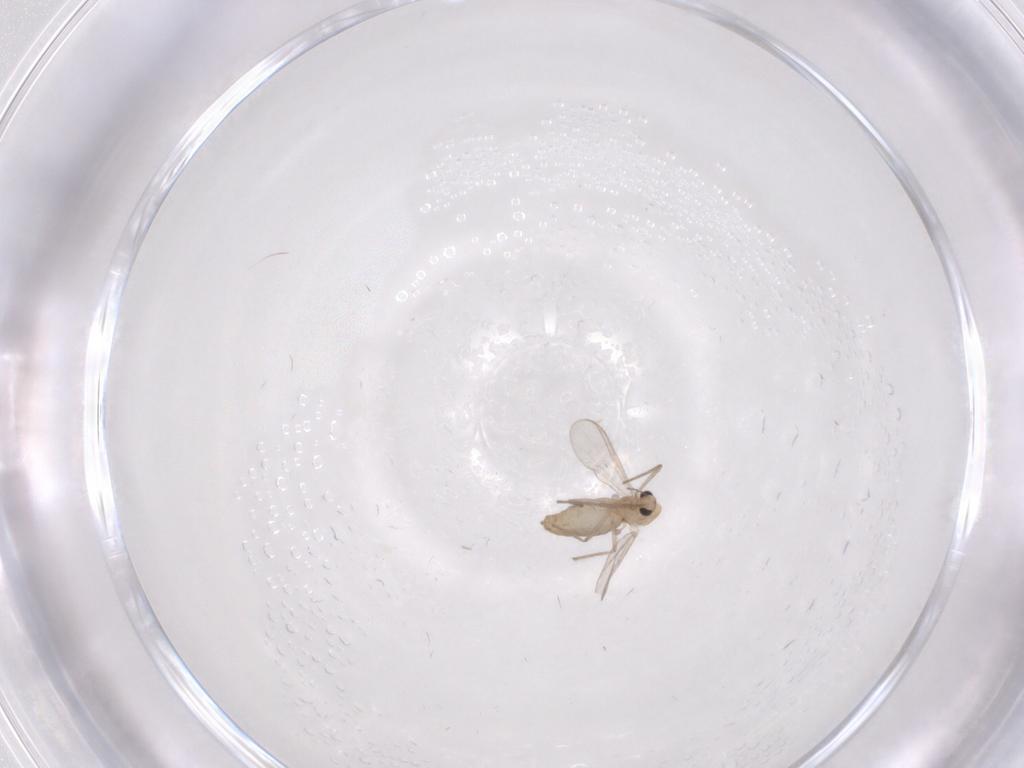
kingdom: Animalia
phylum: Arthropoda
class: Insecta
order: Diptera
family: Chironomidae
